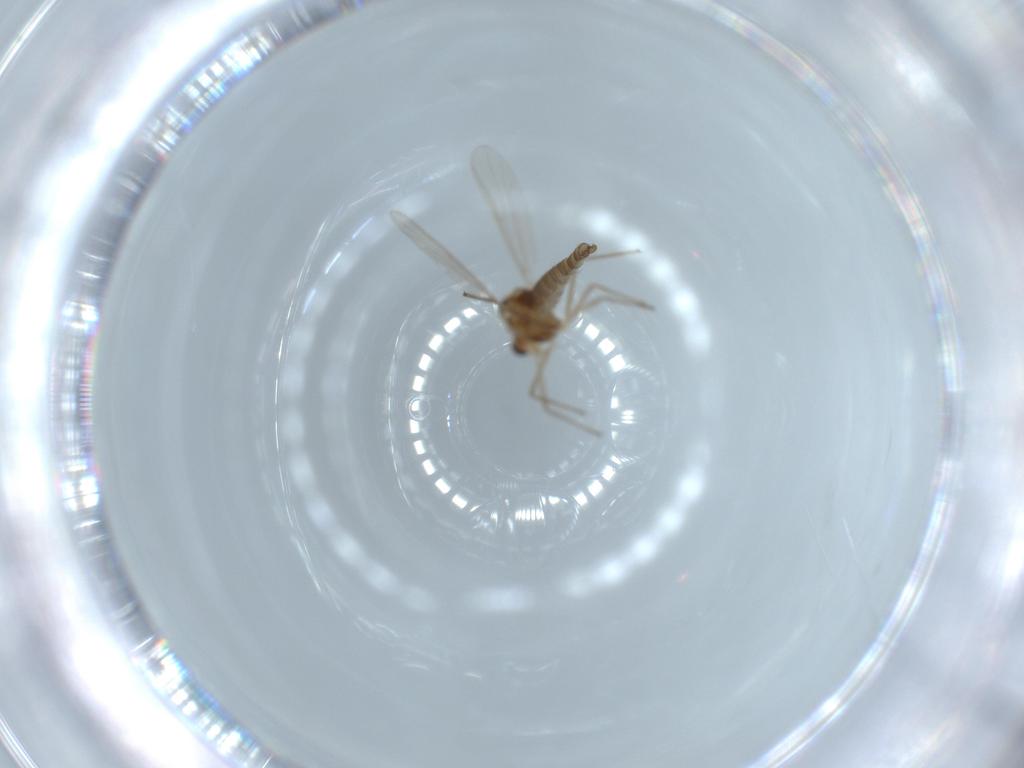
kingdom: Animalia
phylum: Arthropoda
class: Insecta
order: Diptera
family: Chironomidae
